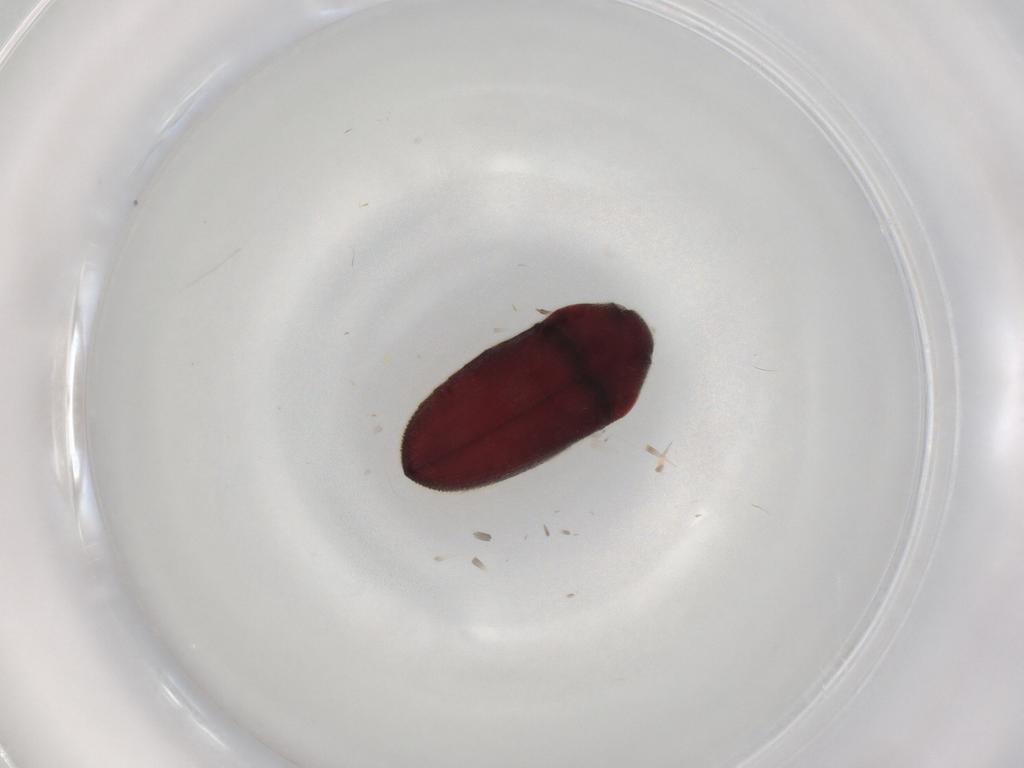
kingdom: Animalia
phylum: Arthropoda
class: Insecta
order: Coleoptera
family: Throscidae
